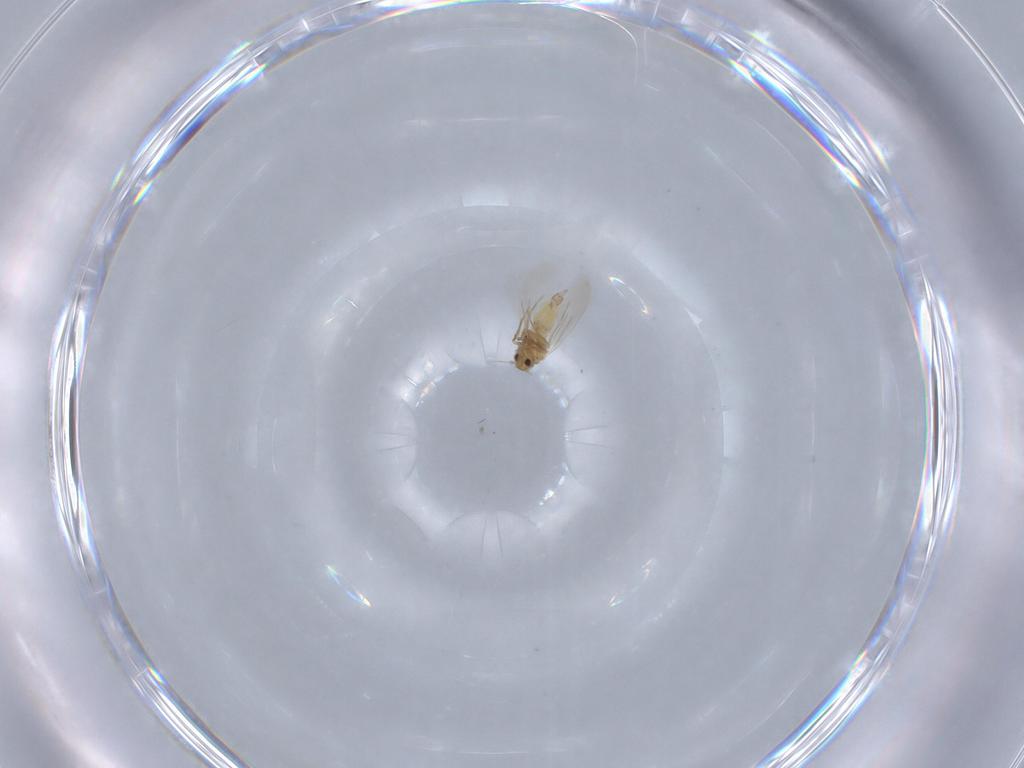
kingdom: Animalia
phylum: Arthropoda
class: Insecta
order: Hemiptera
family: Aleyrodidae
